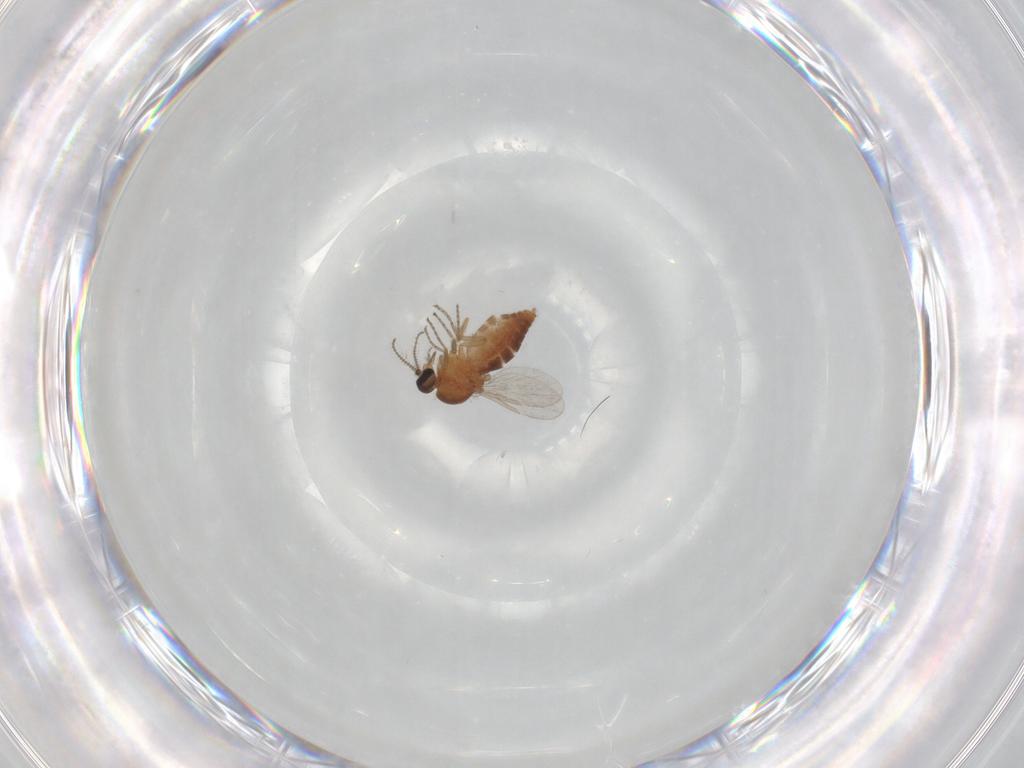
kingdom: Animalia
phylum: Arthropoda
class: Insecta
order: Diptera
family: Ceratopogonidae
